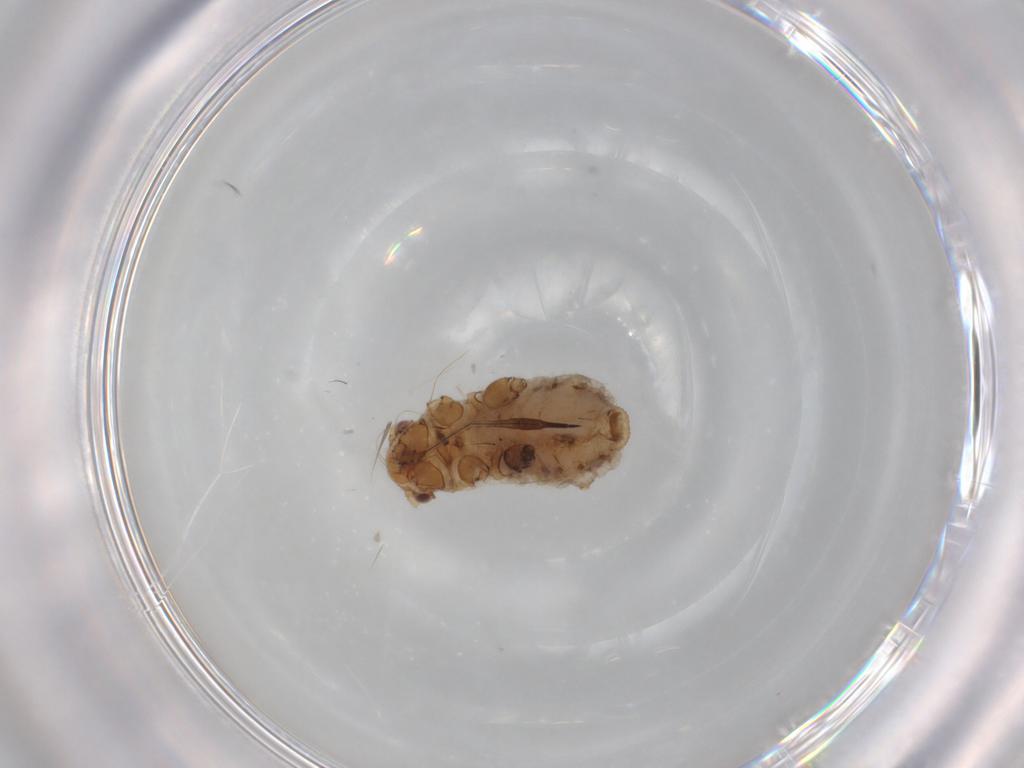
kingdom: Animalia
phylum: Arthropoda
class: Insecta
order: Hemiptera
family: Aphididae
